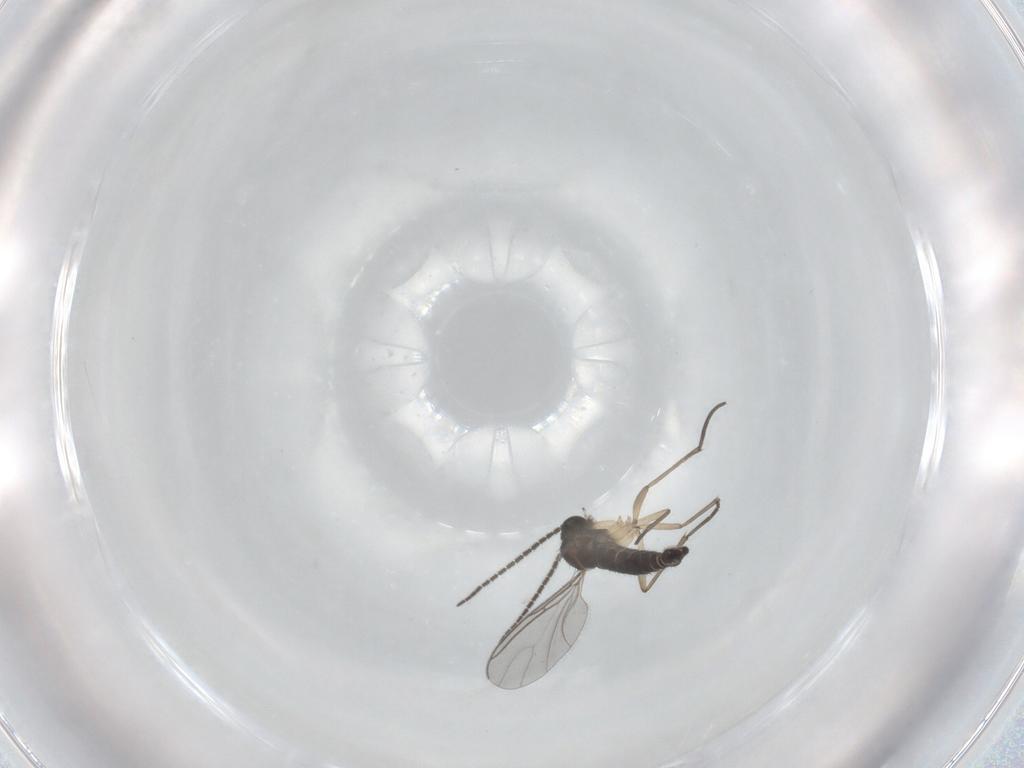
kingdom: Animalia
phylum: Arthropoda
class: Insecta
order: Diptera
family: Sciaridae
